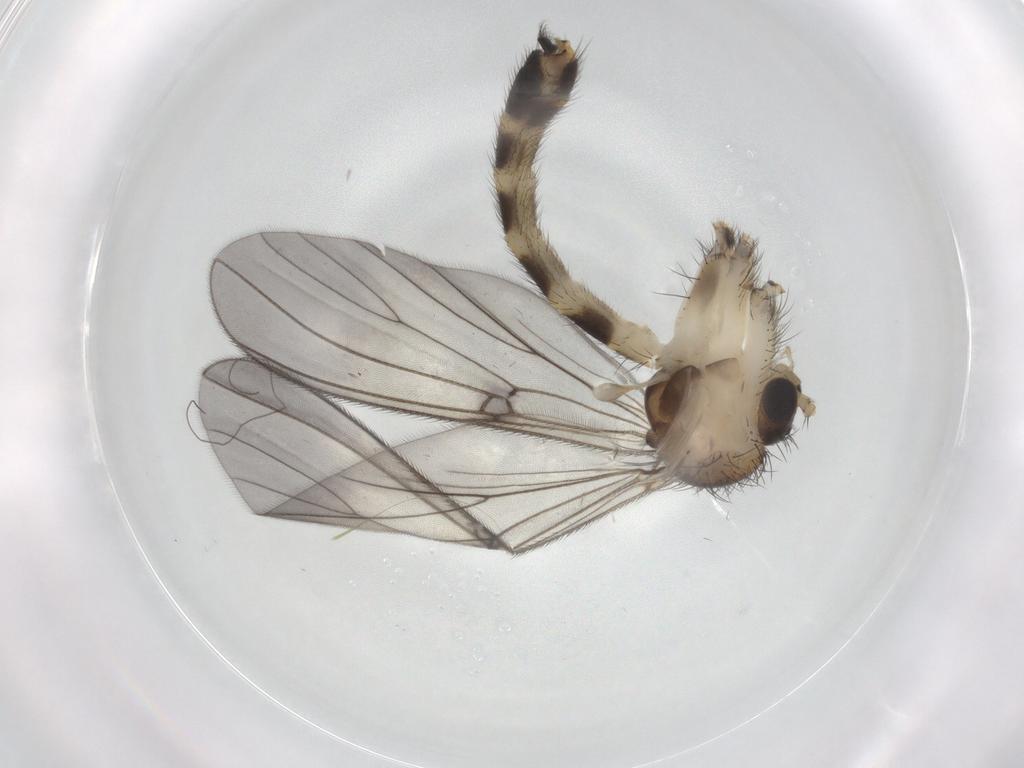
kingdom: Animalia
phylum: Arthropoda
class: Insecta
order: Diptera
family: Mycetophilidae
